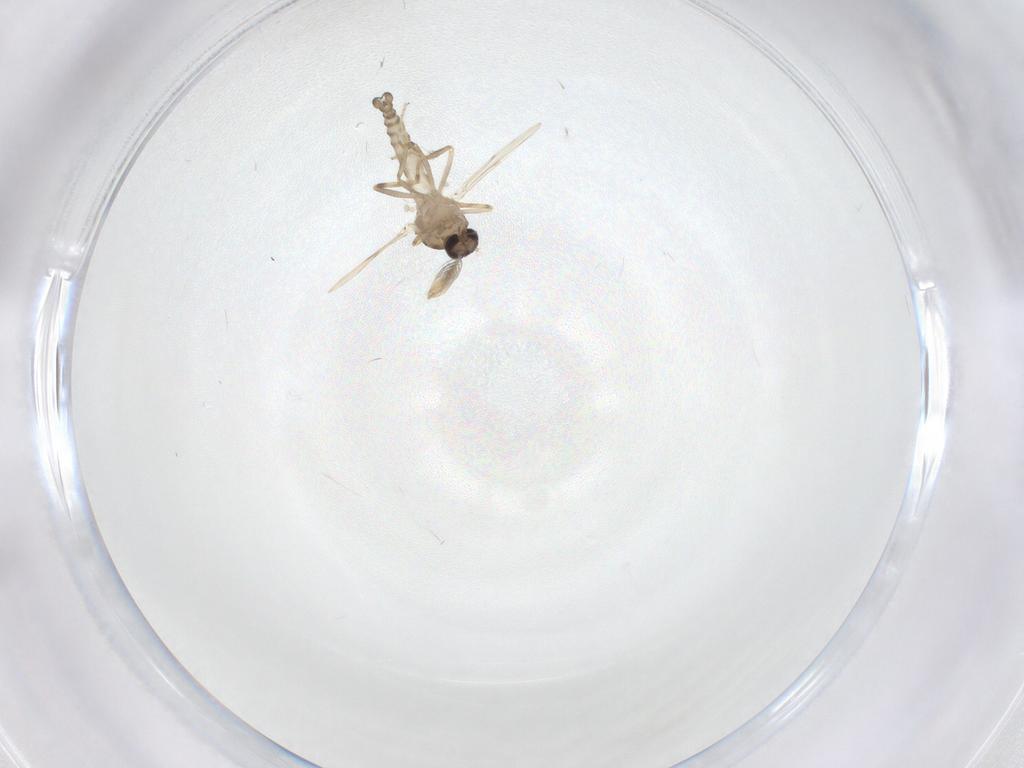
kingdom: Animalia
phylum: Arthropoda
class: Insecta
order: Diptera
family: Ceratopogonidae
